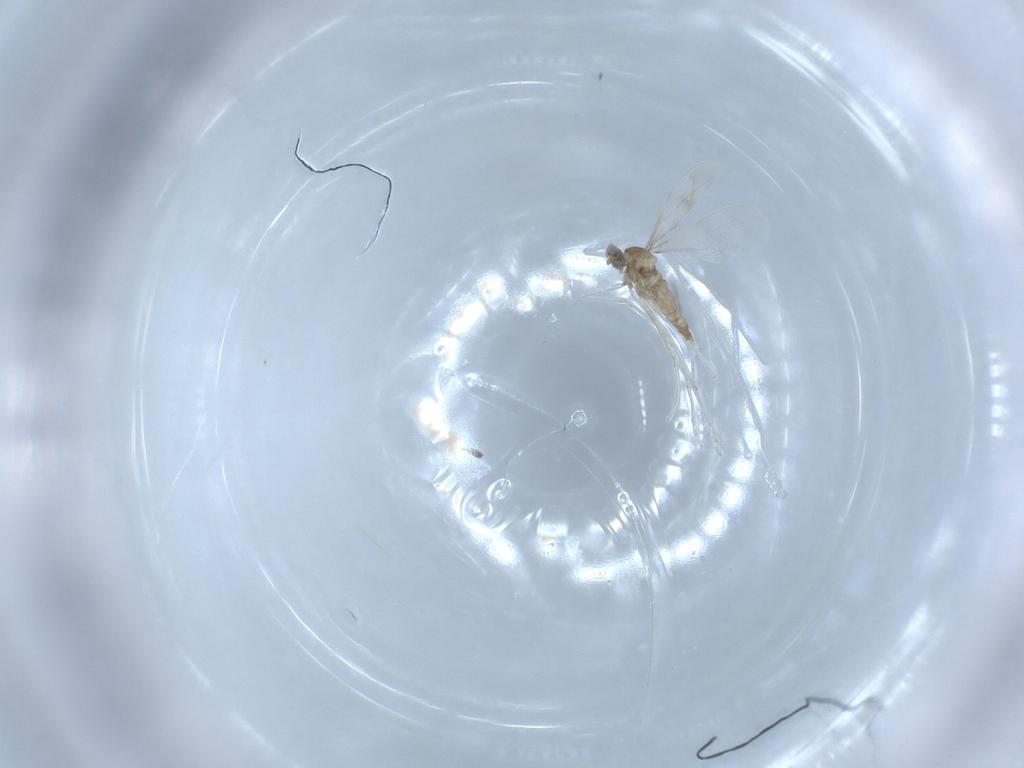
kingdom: Animalia
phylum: Arthropoda
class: Insecta
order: Diptera
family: Cecidomyiidae
